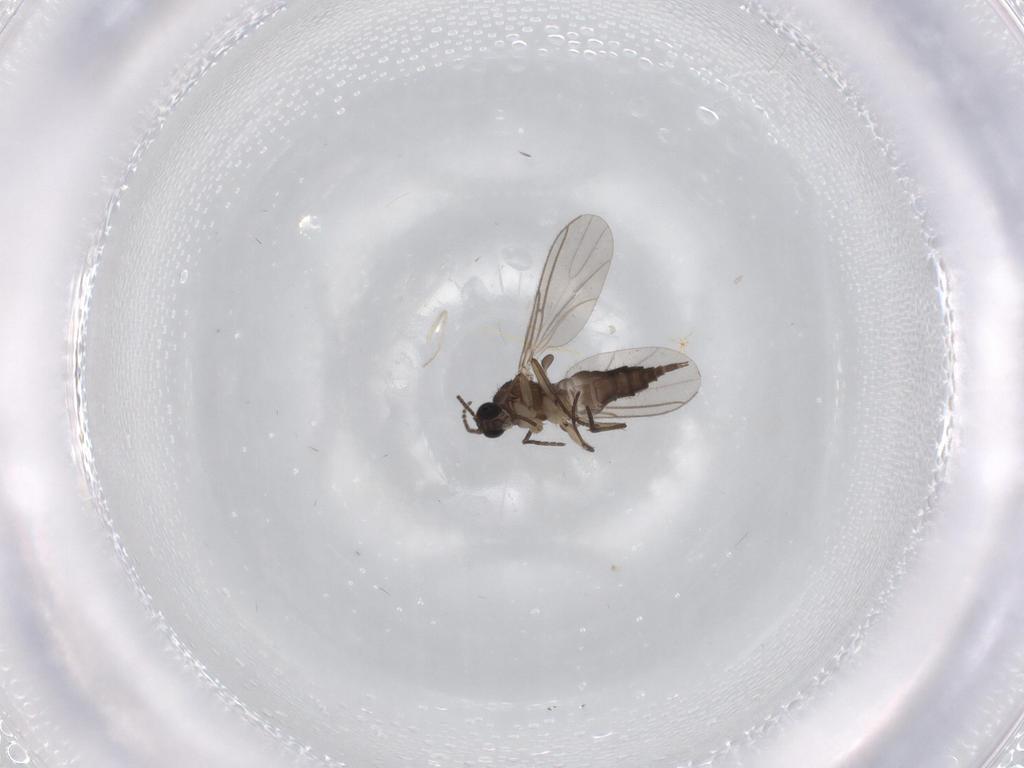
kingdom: Animalia
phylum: Arthropoda
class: Insecta
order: Diptera
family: Phoridae
